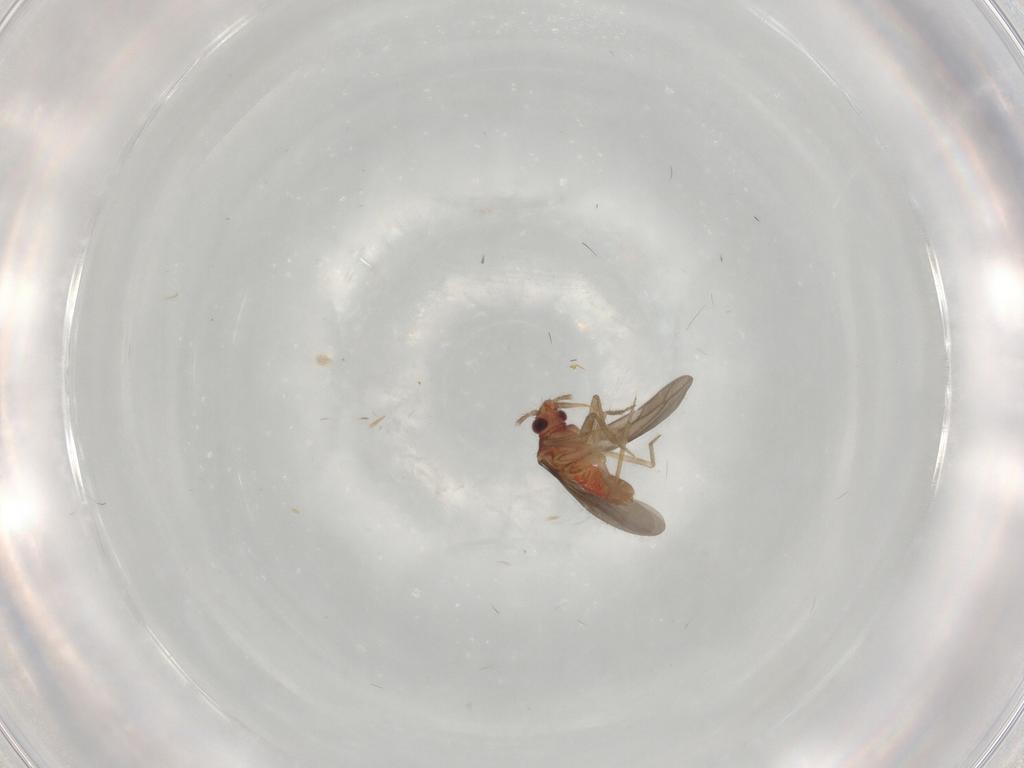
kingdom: Animalia
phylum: Arthropoda
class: Insecta
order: Hemiptera
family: Ceratocombidae
